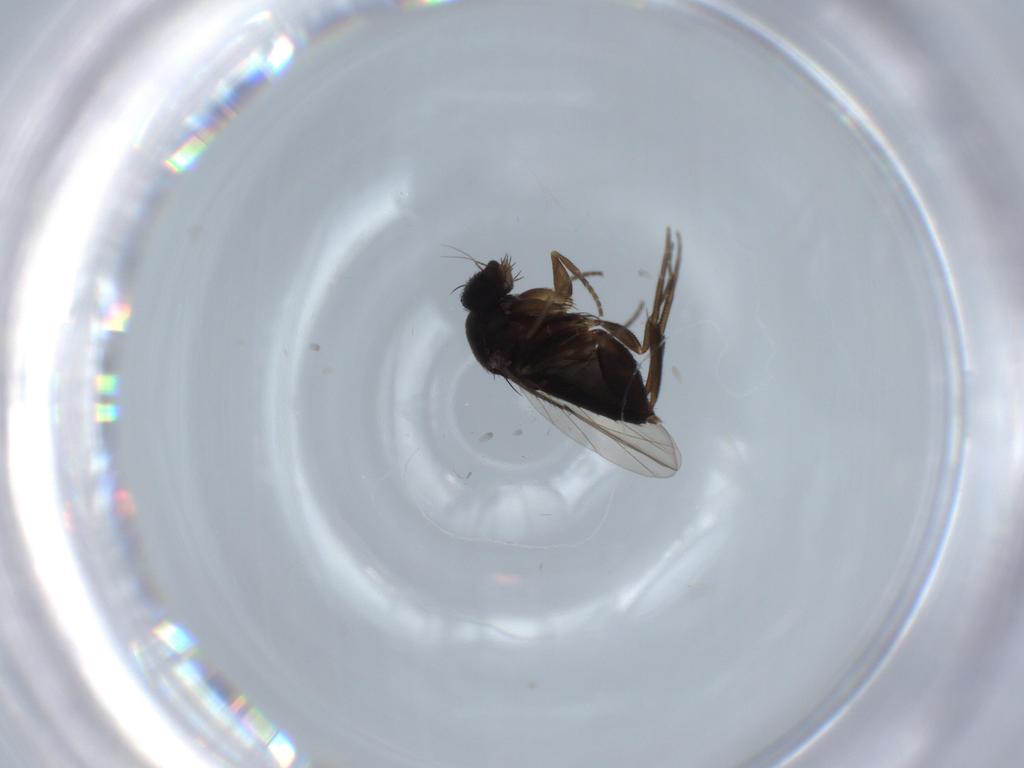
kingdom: Animalia
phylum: Arthropoda
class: Insecta
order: Diptera
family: Phoridae
